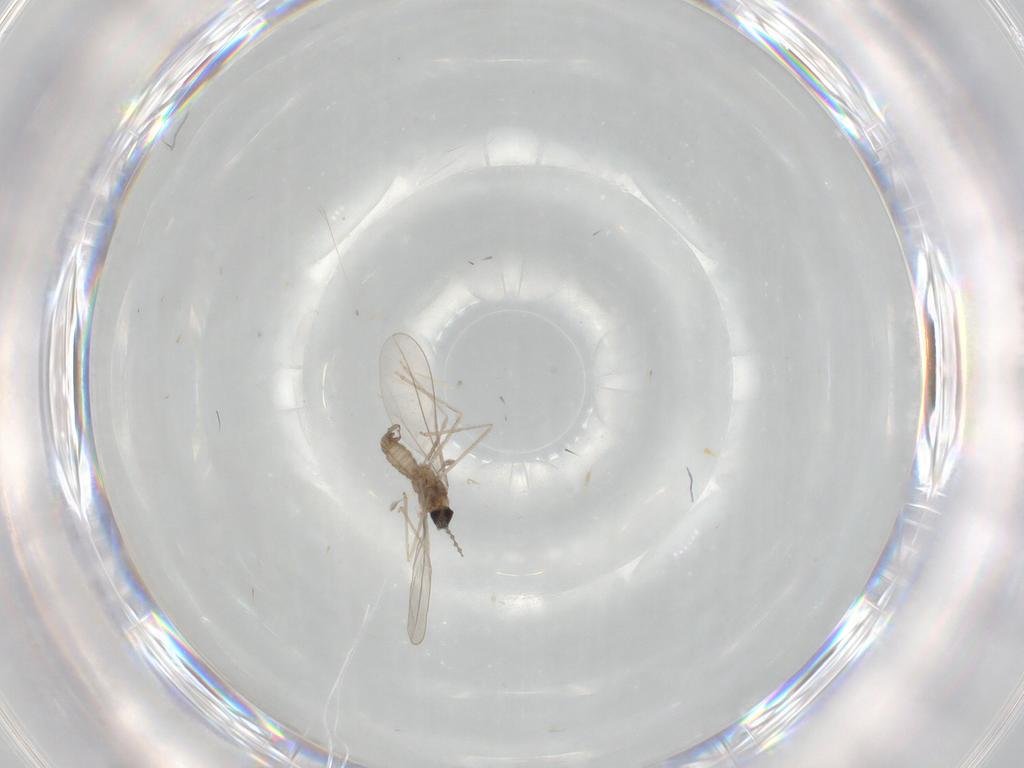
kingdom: Animalia
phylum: Arthropoda
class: Insecta
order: Diptera
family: Cecidomyiidae
